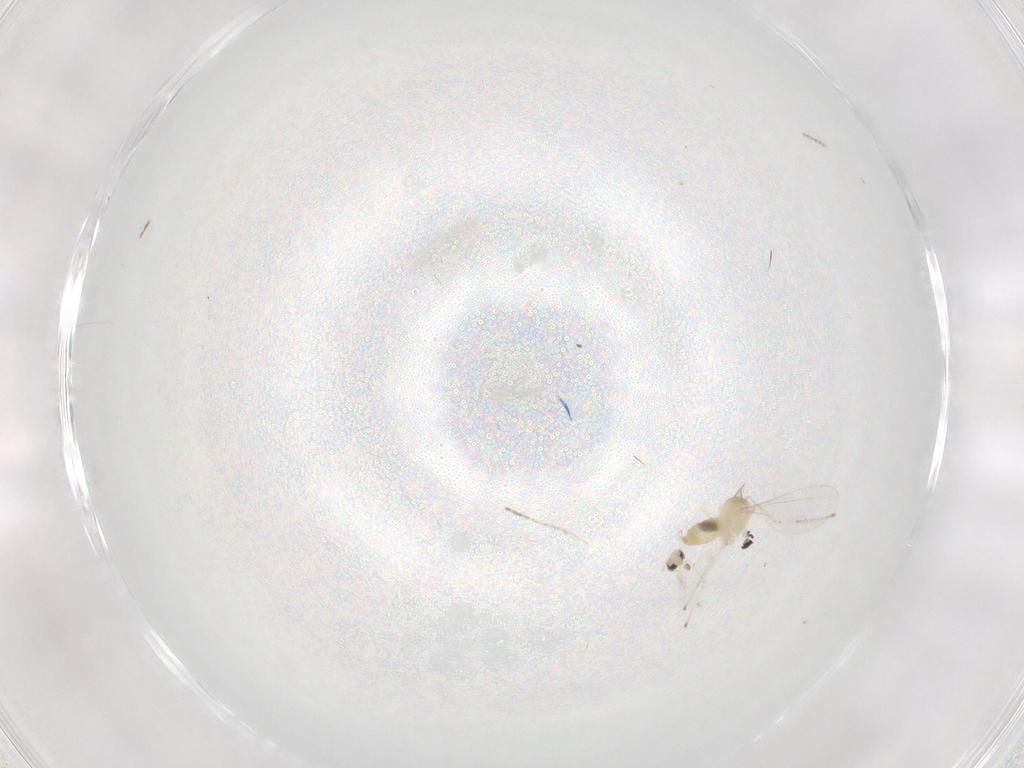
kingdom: Animalia
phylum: Arthropoda
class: Insecta
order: Diptera
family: Cecidomyiidae
